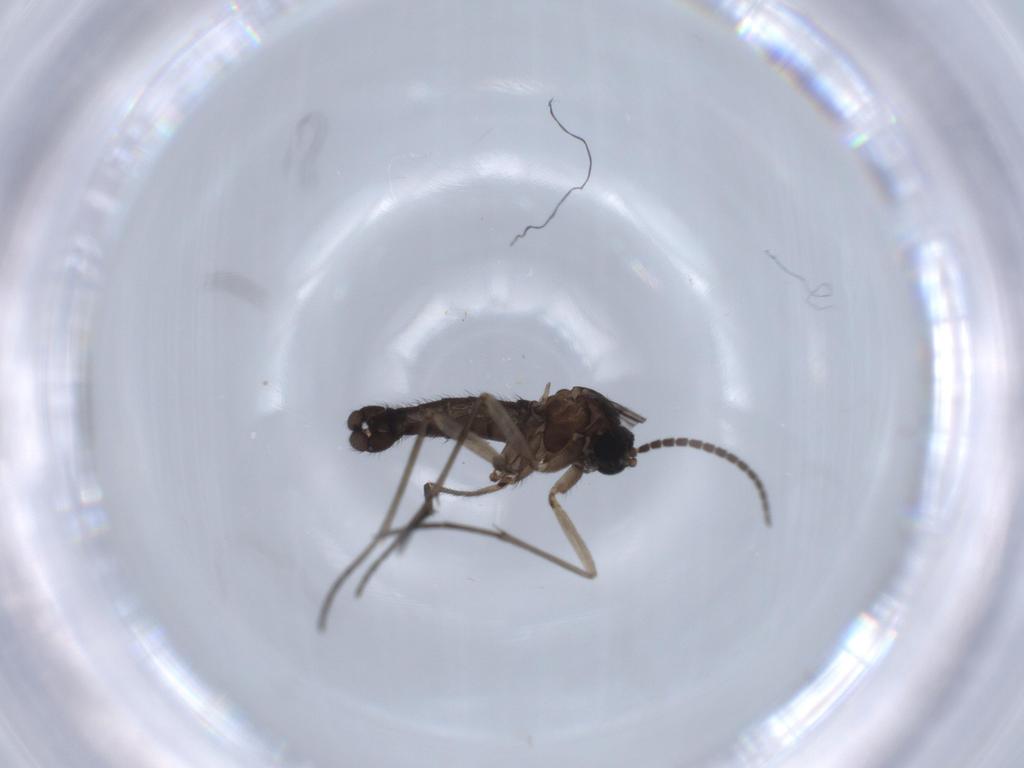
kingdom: Animalia
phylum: Arthropoda
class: Insecta
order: Diptera
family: Sciaridae
